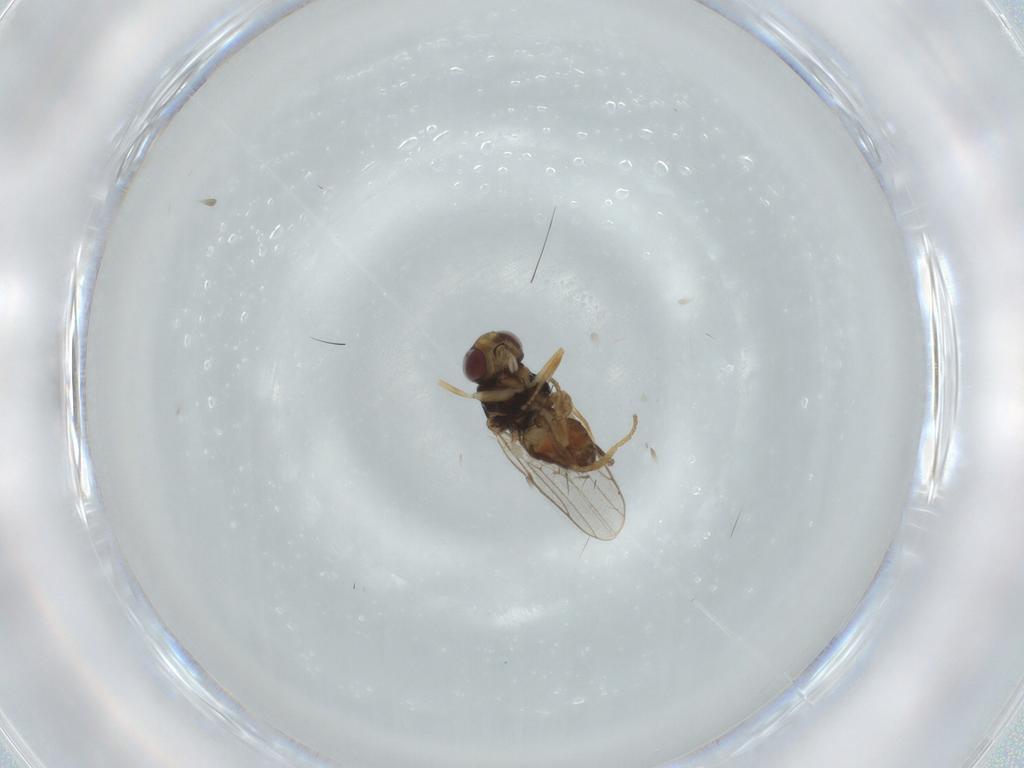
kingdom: Animalia
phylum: Arthropoda
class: Insecta
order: Diptera
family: Chloropidae
